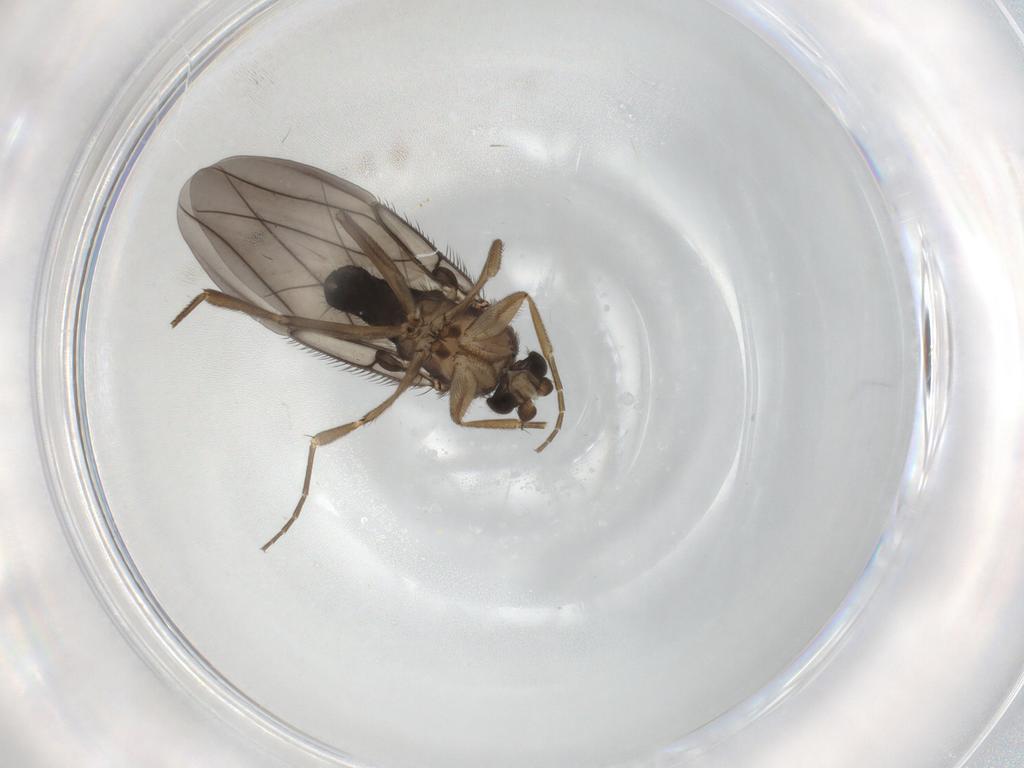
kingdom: Animalia
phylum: Arthropoda
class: Insecta
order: Diptera
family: Phoridae
